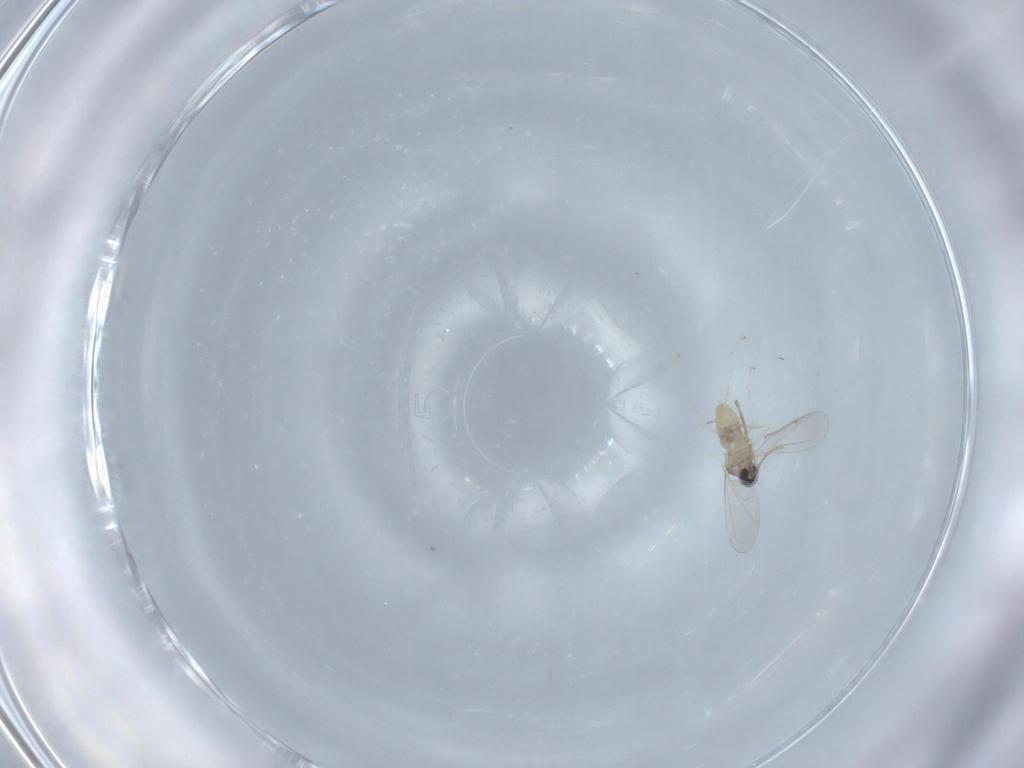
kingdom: Animalia
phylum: Arthropoda
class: Insecta
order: Diptera
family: Cecidomyiidae
